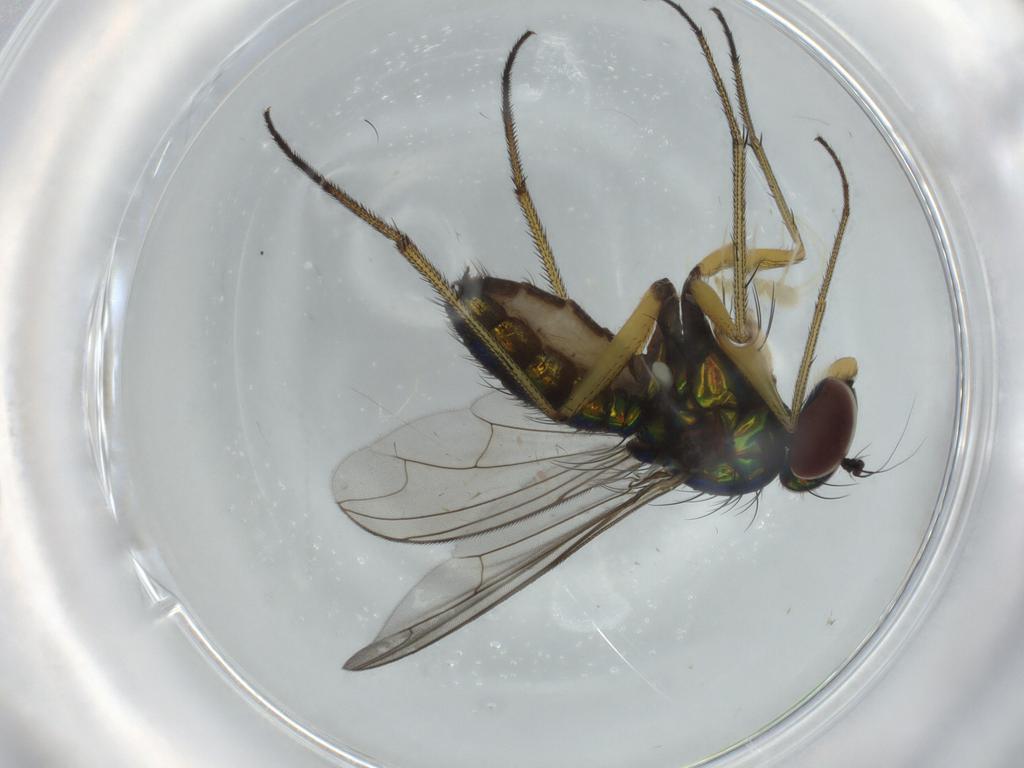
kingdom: Animalia
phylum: Arthropoda
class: Insecta
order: Diptera
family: Dolichopodidae
